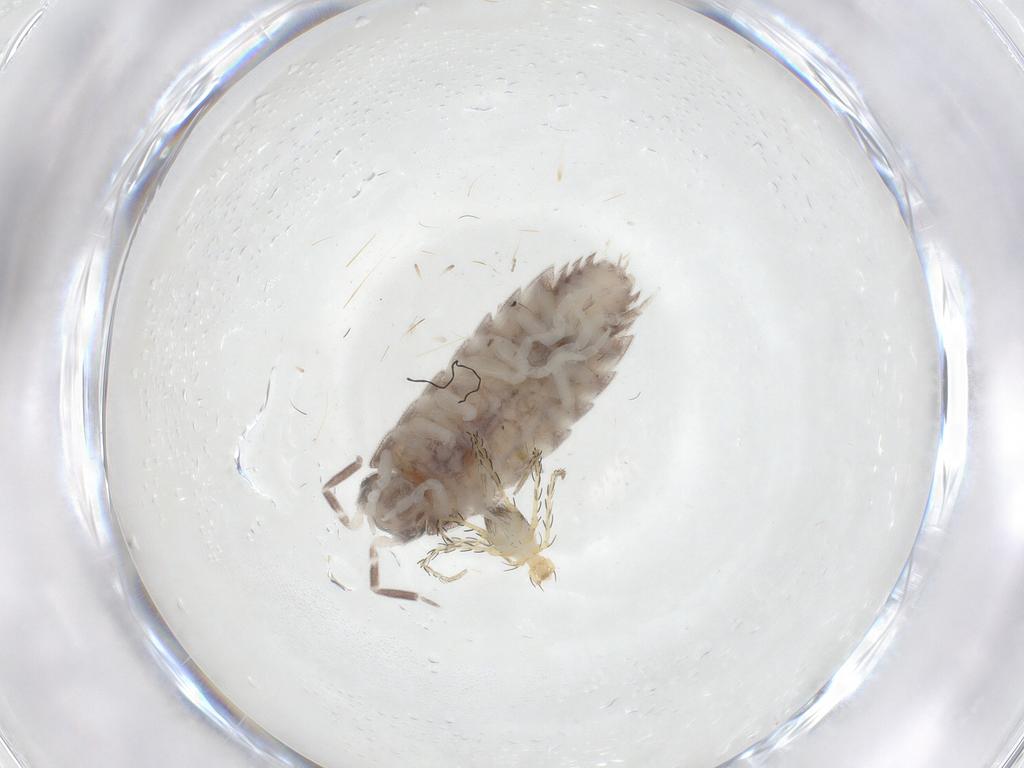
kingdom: Animalia
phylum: Arthropoda
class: Arachnida
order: Trombidiformes
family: Erythraeidae
